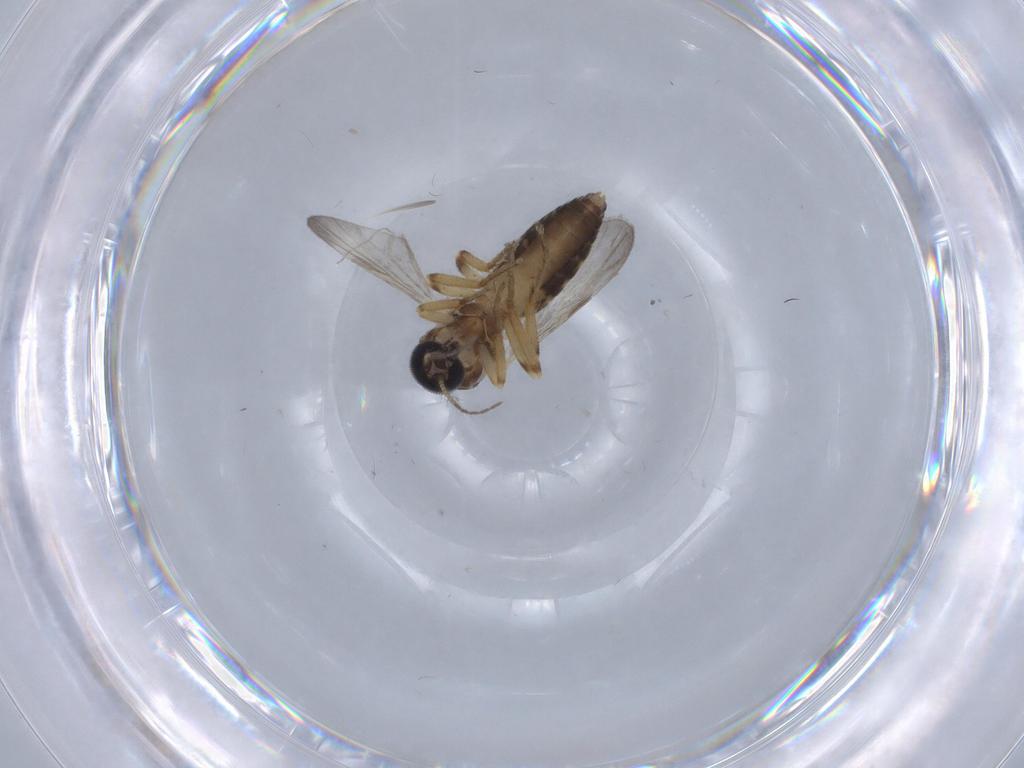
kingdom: Animalia
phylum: Arthropoda
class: Insecta
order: Diptera
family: Ceratopogonidae
